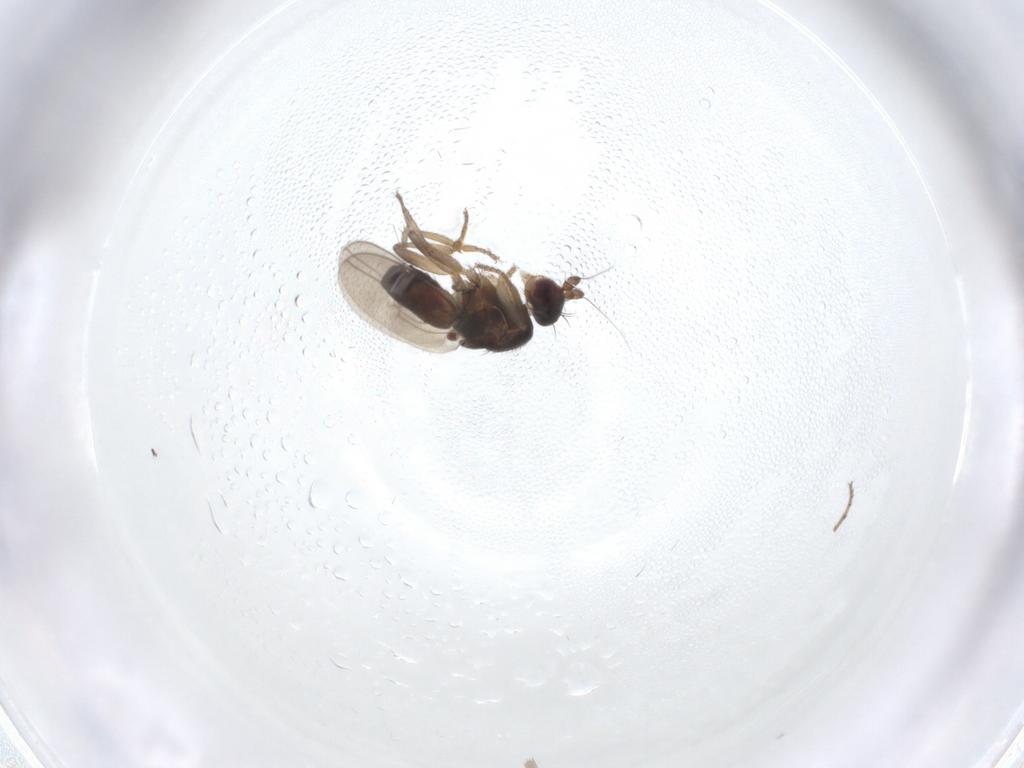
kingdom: Animalia
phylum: Arthropoda
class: Insecta
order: Diptera
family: Sphaeroceridae
